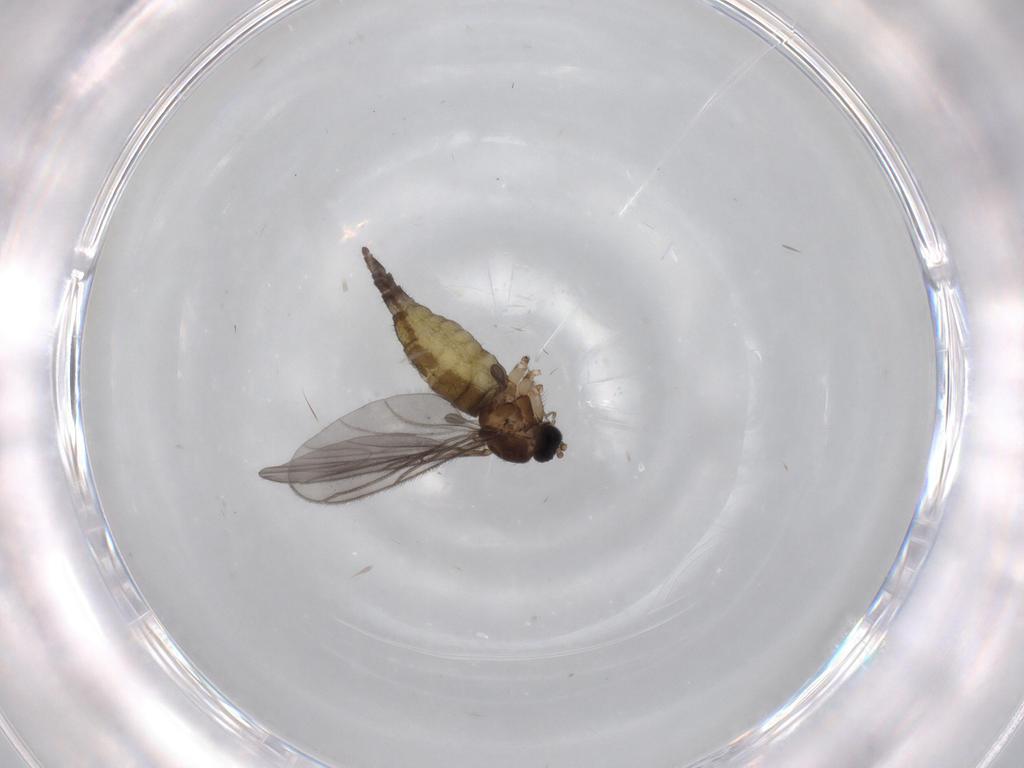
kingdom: Animalia
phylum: Arthropoda
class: Insecta
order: Diptera
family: Sciaridae
